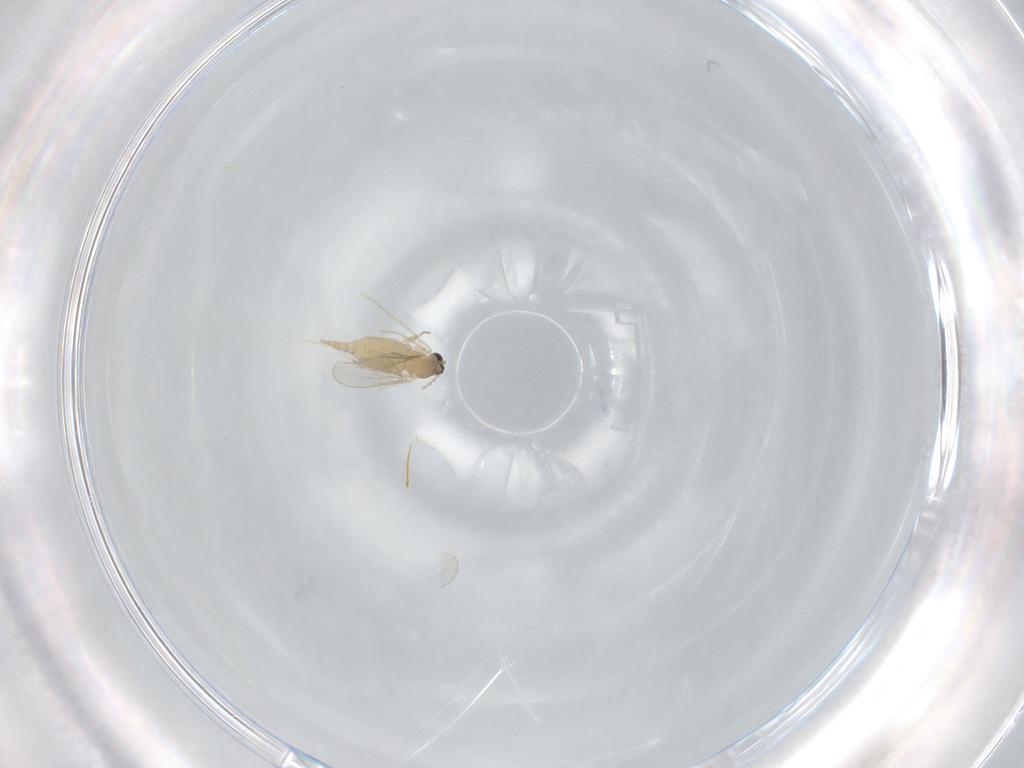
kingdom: Animalia
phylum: Arthropoda
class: Insecta
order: Diptera
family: Cecidomyiidae
